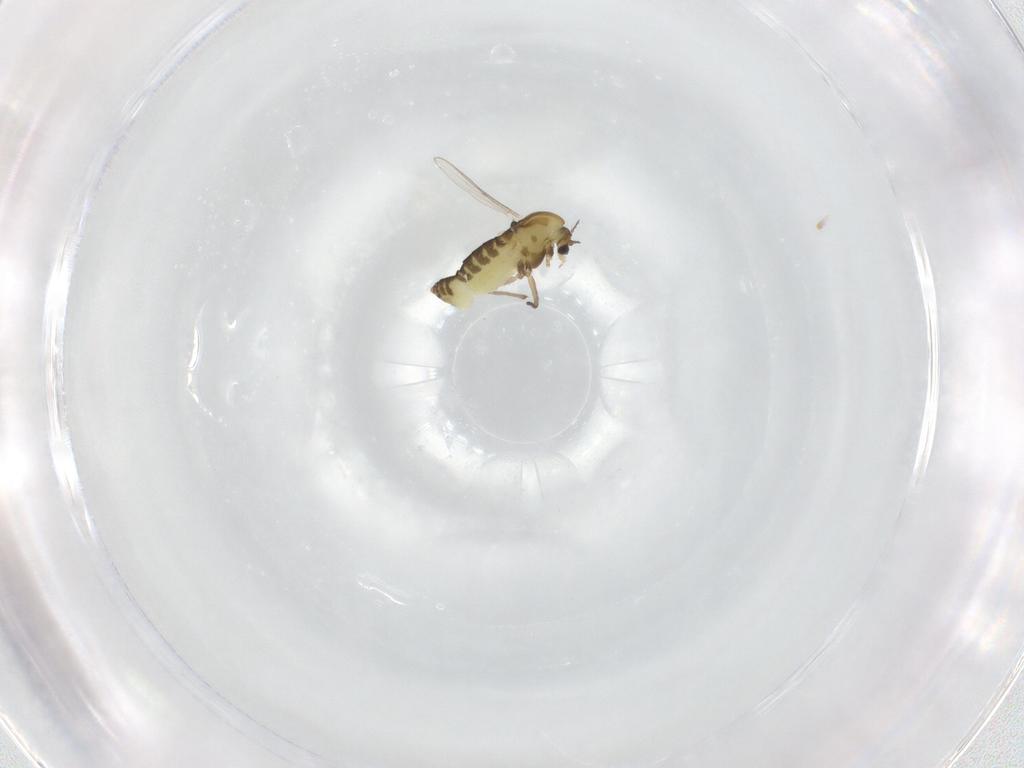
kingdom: Animalia
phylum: Arthropoda
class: Insecta
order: Diptera
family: Chironomidae
